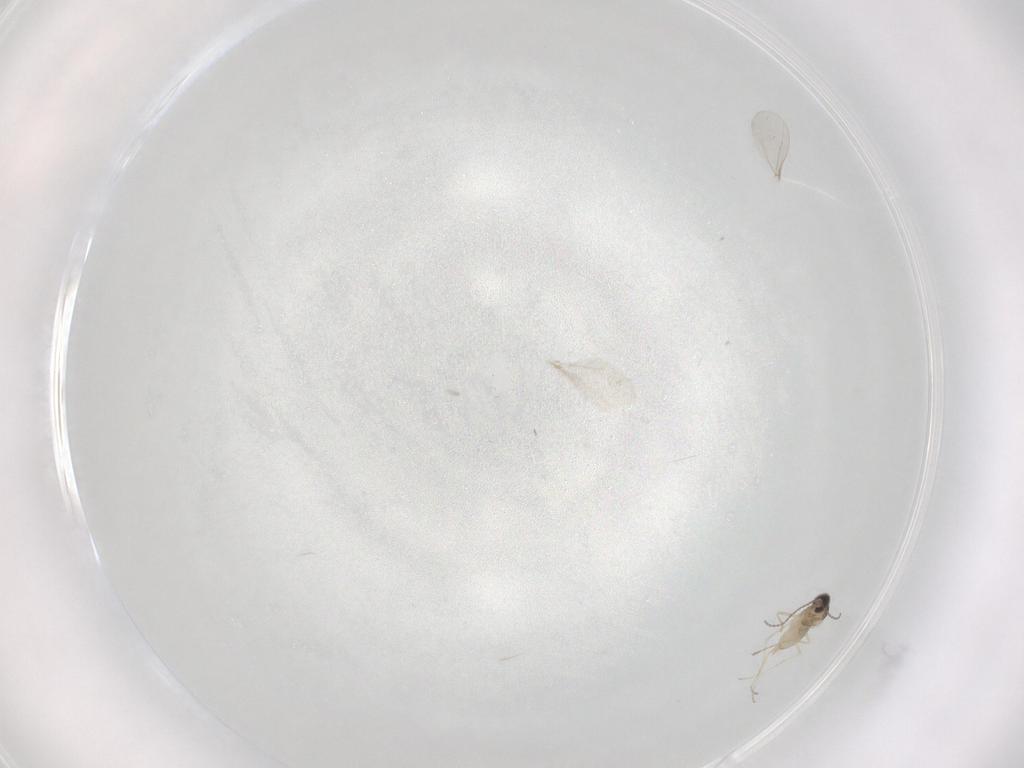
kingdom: Animalia
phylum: Arthropoda
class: Insecta
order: Diptera
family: Cecidomyiidae
